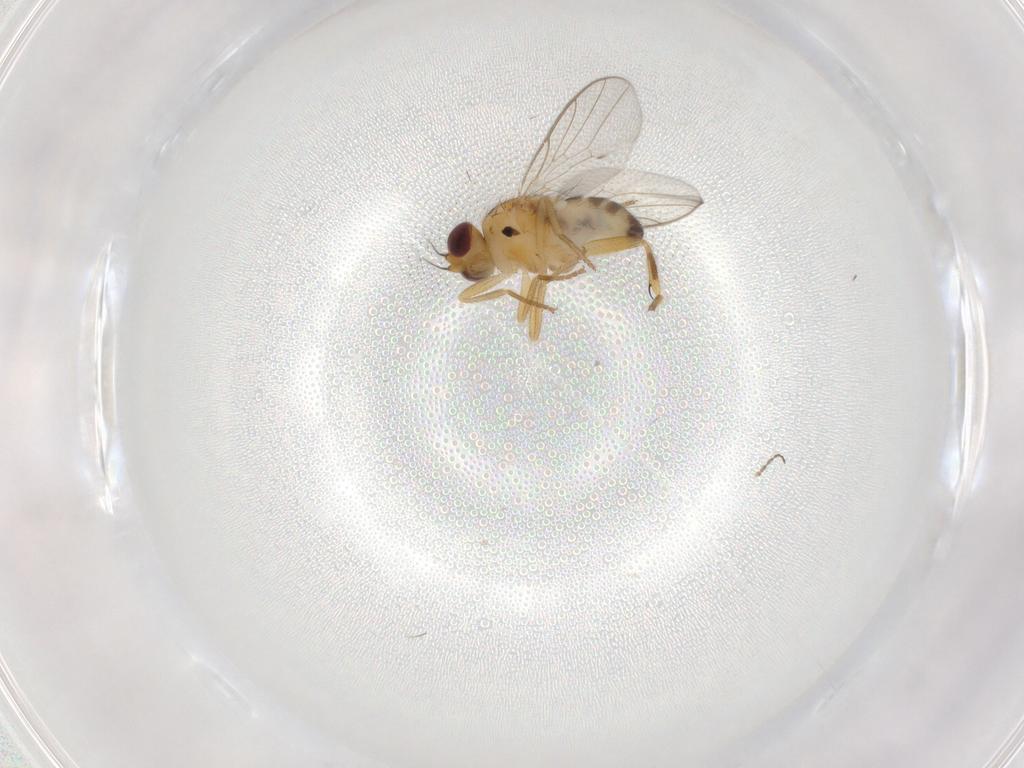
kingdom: Animalia
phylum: Arthropoda
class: Insecta
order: Diptera
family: Chloropidae
